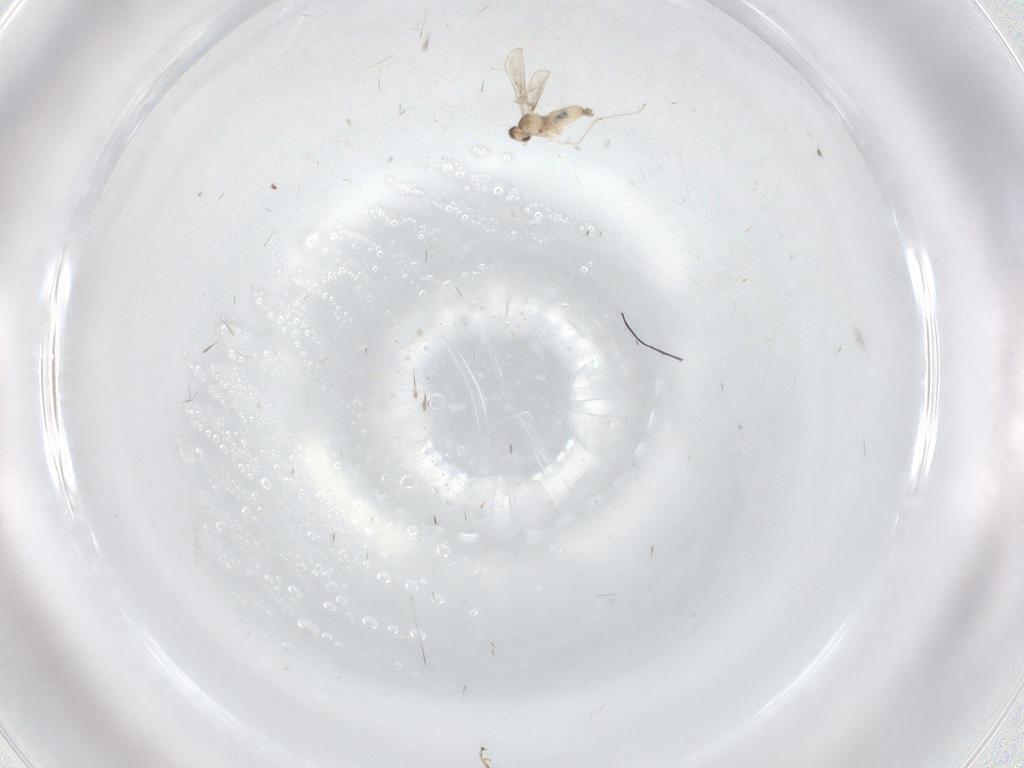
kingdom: Animalia
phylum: Arthropoda
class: Insecta
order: Diptera
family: Cecidomyiidae
